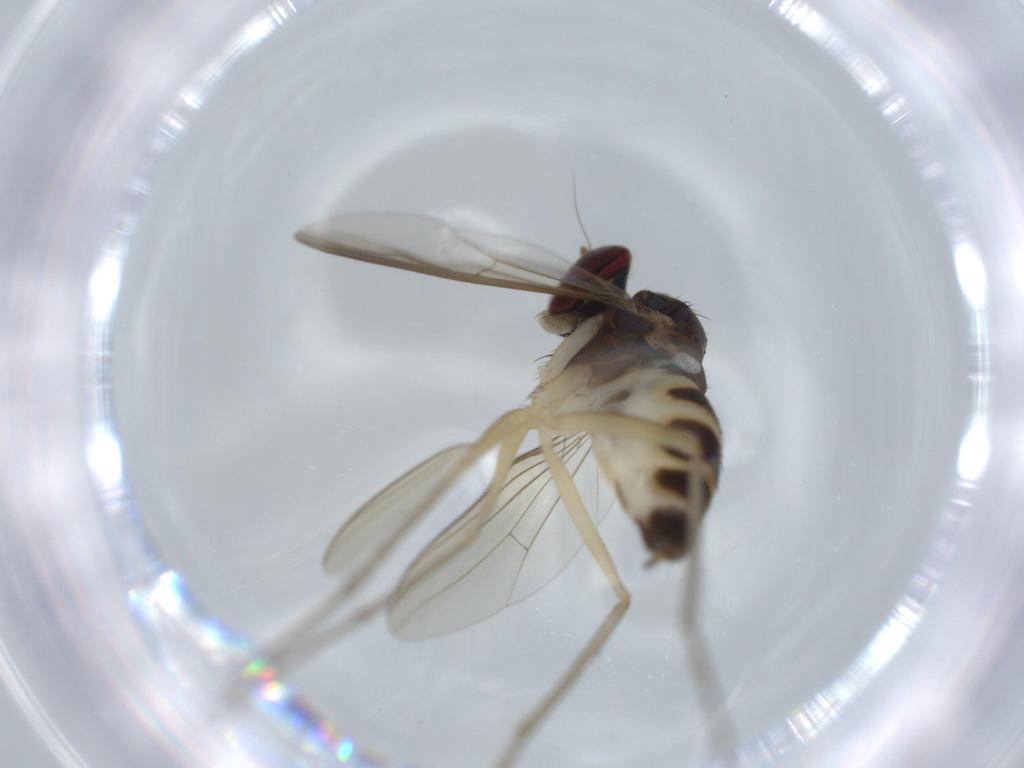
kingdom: Animalia
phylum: Arthropoda
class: Insecta
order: Diptera
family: Dolichopodidae
